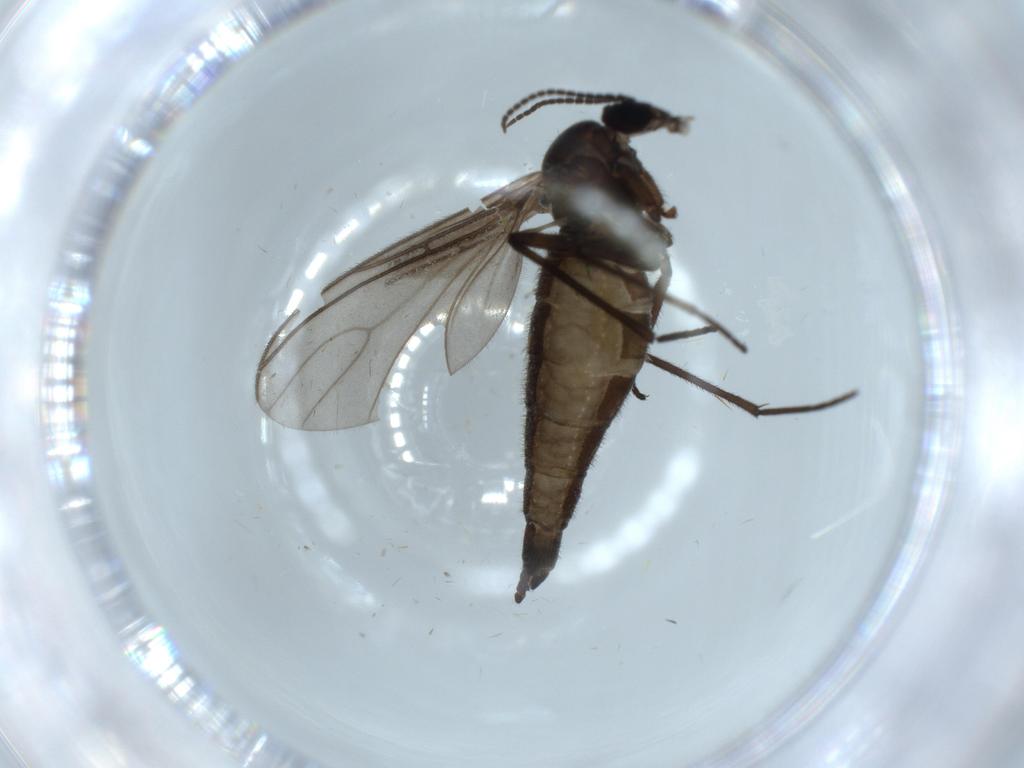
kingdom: Animalia
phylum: Arthropoda
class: Insecta
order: Diptera
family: Sciaridae
